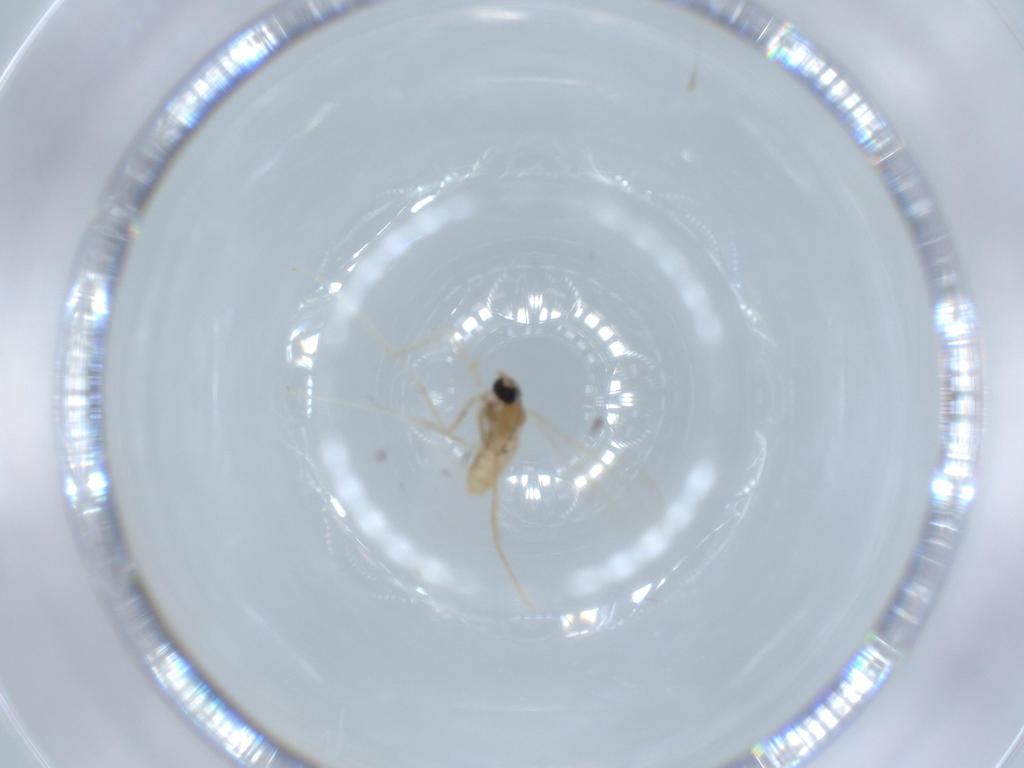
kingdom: Animalia
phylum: Arthropoda
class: Insecta
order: Diptera
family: Cecidomyiidae
